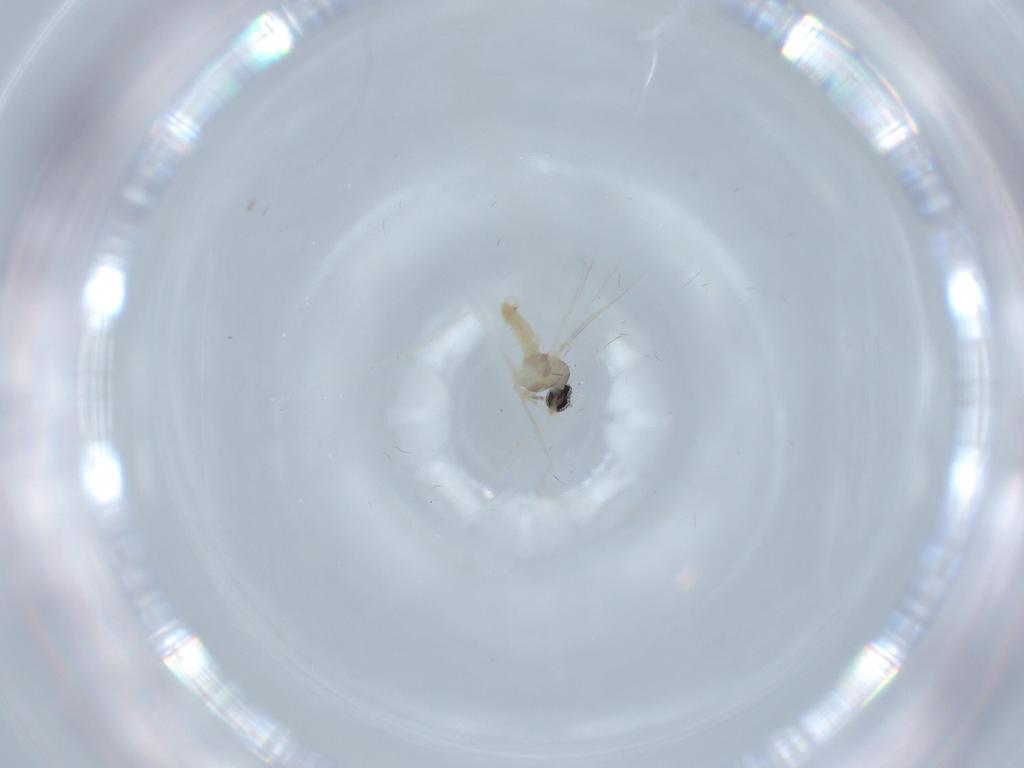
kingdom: Animalia
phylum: Arthropoda
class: Insecta
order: Diptera
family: Cecidomyiidae
